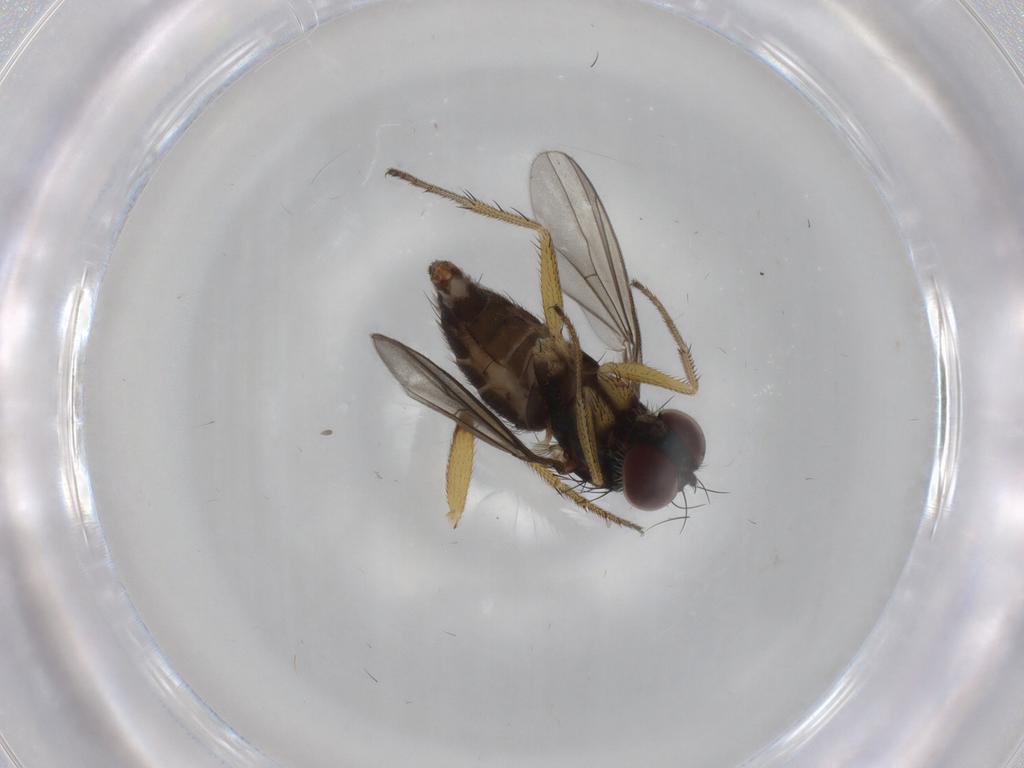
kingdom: Animalia
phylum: Arthropoda
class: Insecta
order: Diptera
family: Dolichopodidae
